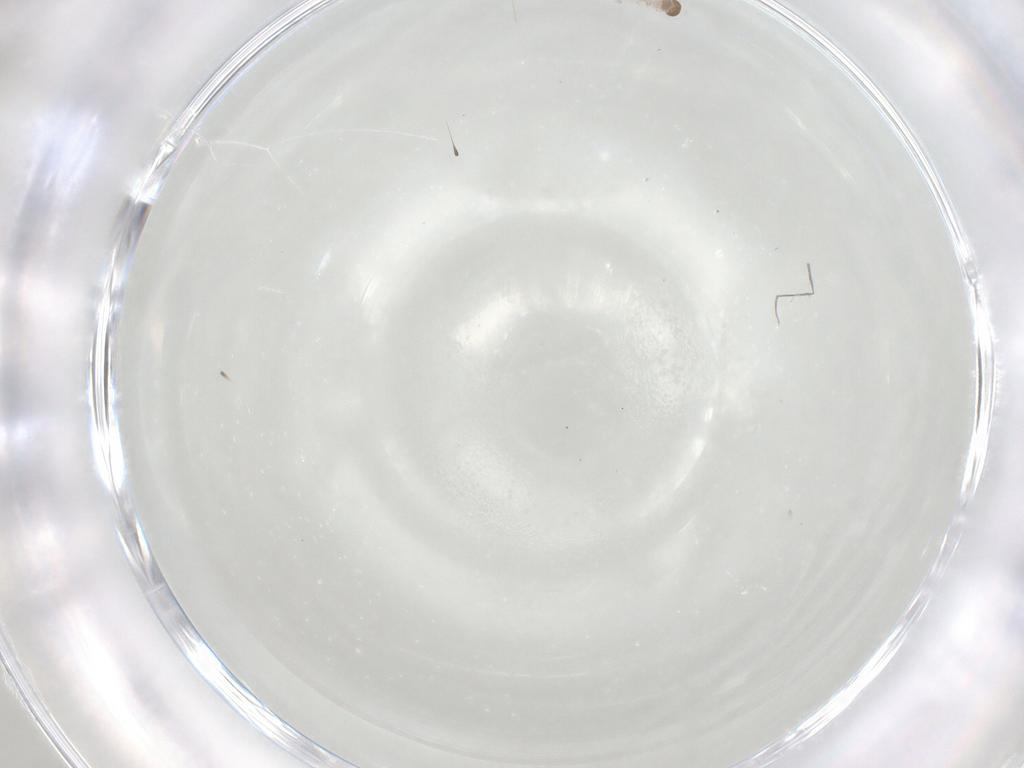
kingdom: Animalia
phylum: Arthropoda
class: Insecta
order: Lepidoptera
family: Coleophoridae
